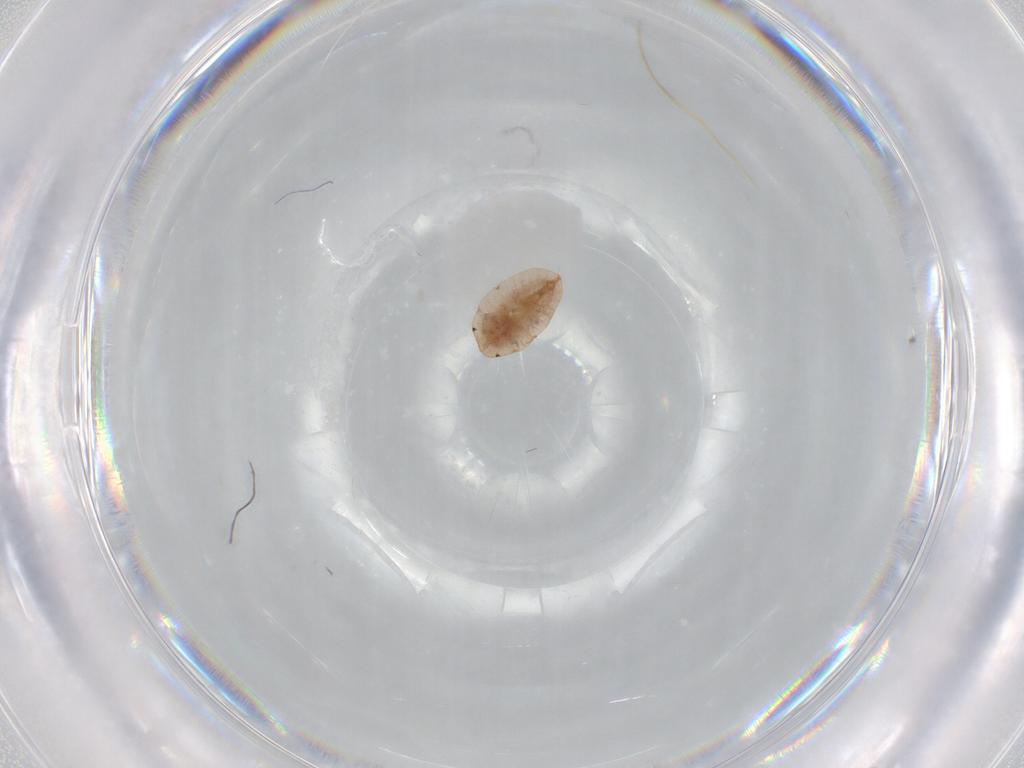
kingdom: Animalia
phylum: Arthropoda
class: Insecta
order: Hemiptera
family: Coccidae
